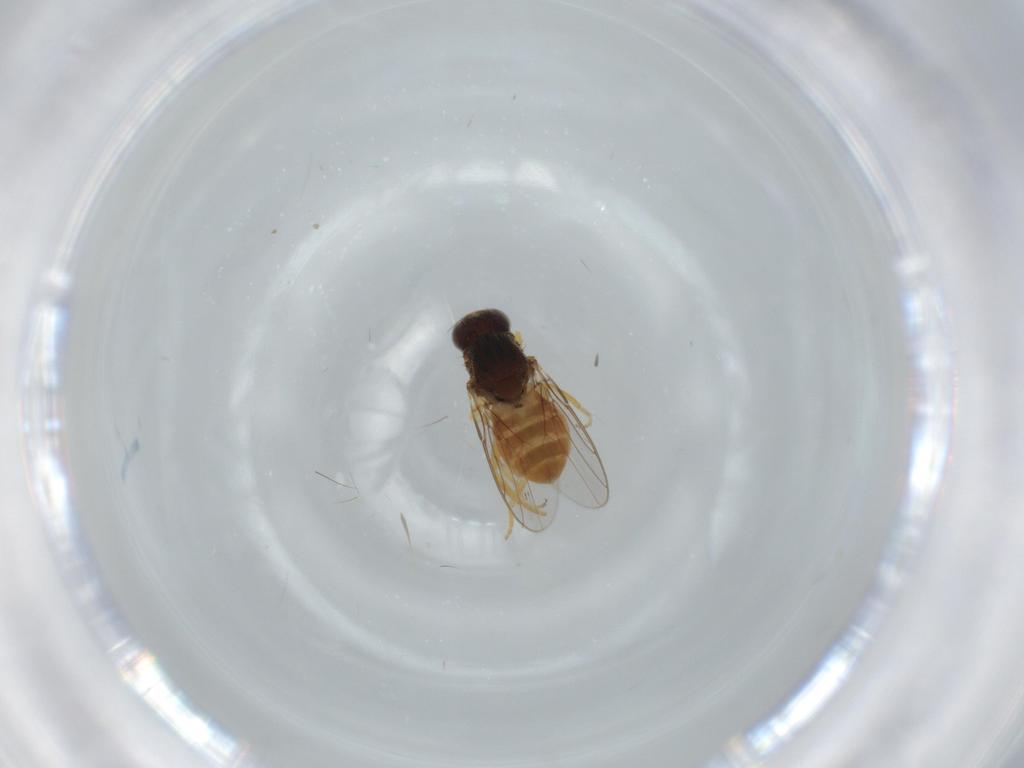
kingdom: Animalia
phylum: Arthropoda
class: Insecta
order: Diptera
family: Chloropidae
